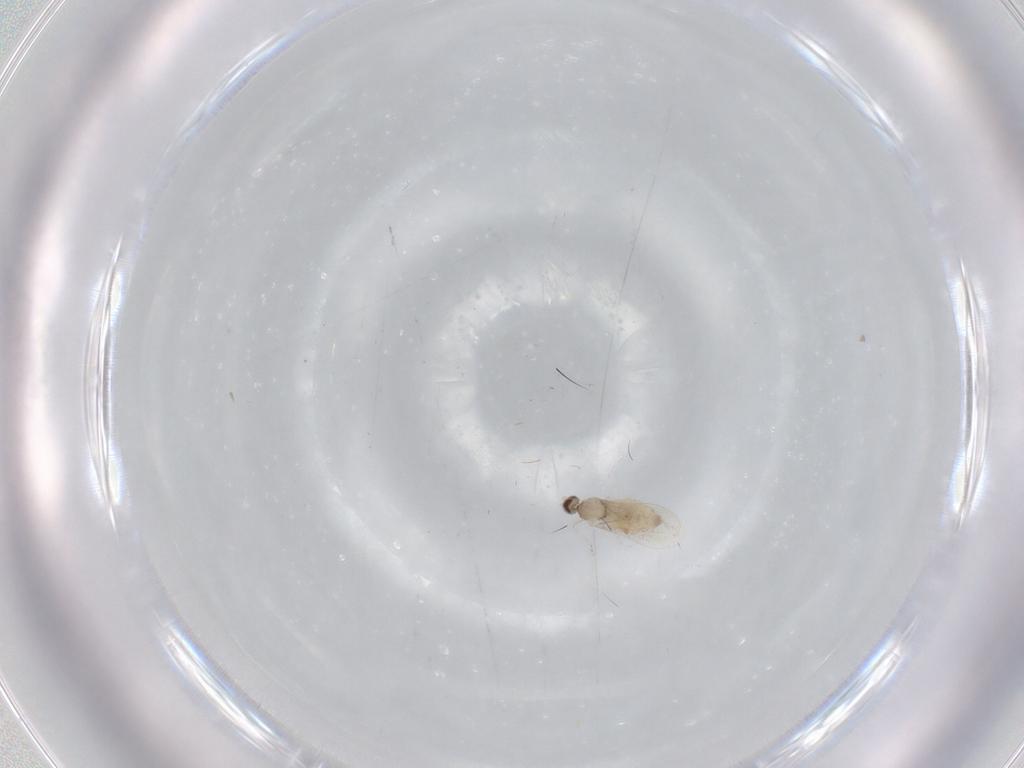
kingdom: Animalia
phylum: Arthropoda
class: Insecta
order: Diptera
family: Cecidomyiidae
